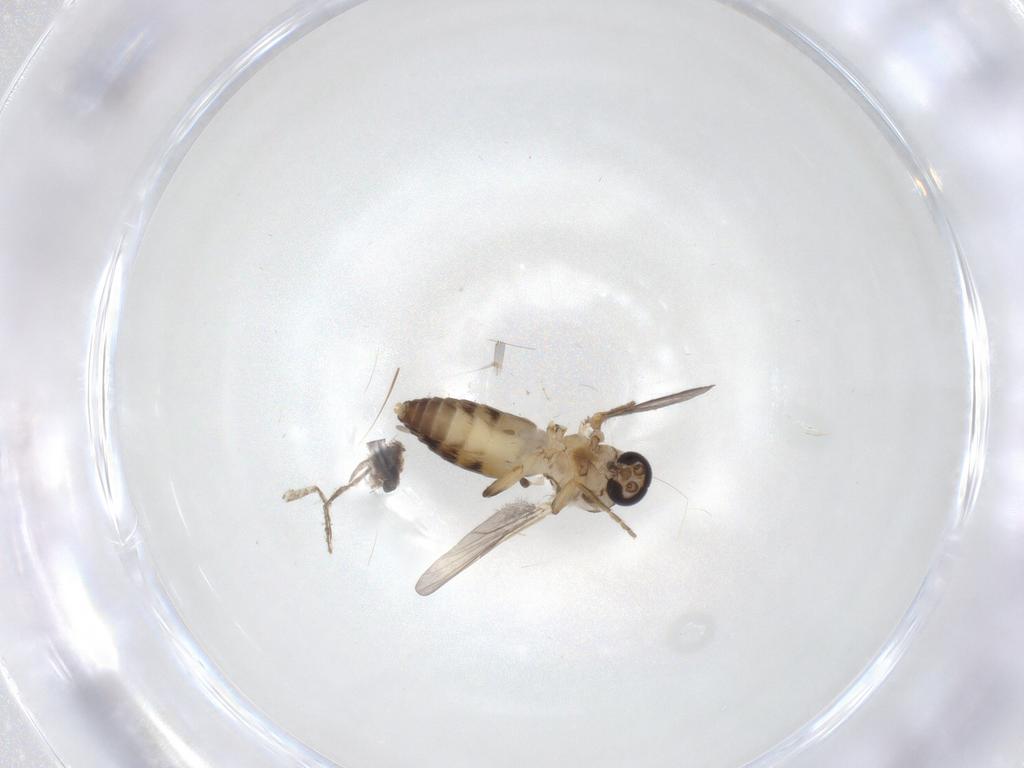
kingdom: Animalia
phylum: Arthropoda
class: Insecta
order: Diptera
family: Ceratopogonidae
